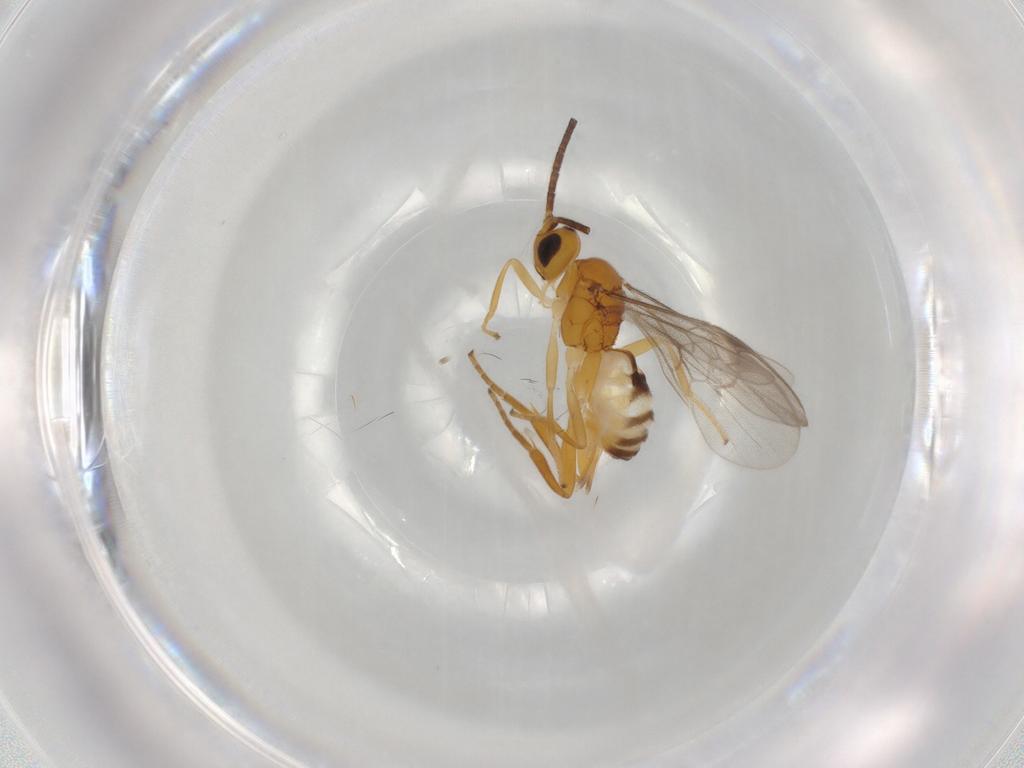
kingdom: Animalia
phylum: Arthropoda
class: Insecta
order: Hymenoptera
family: Braconidae
